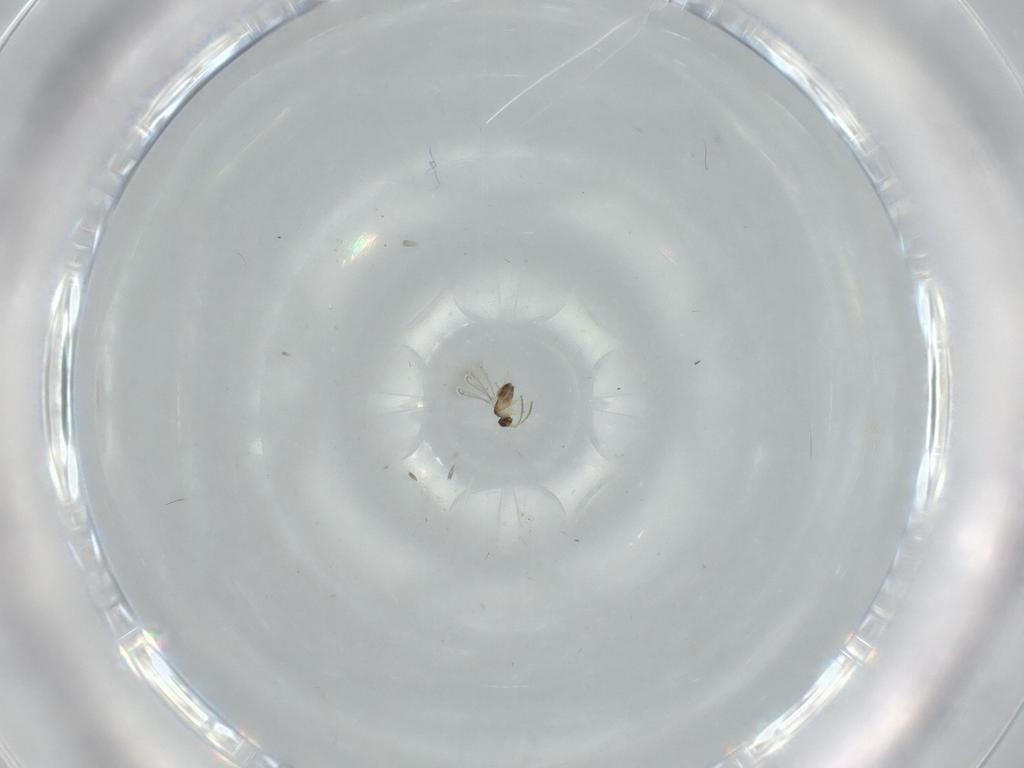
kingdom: Animalia
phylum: Arthropoda
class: Insecta
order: Hymenoptera
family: Diapriidae
